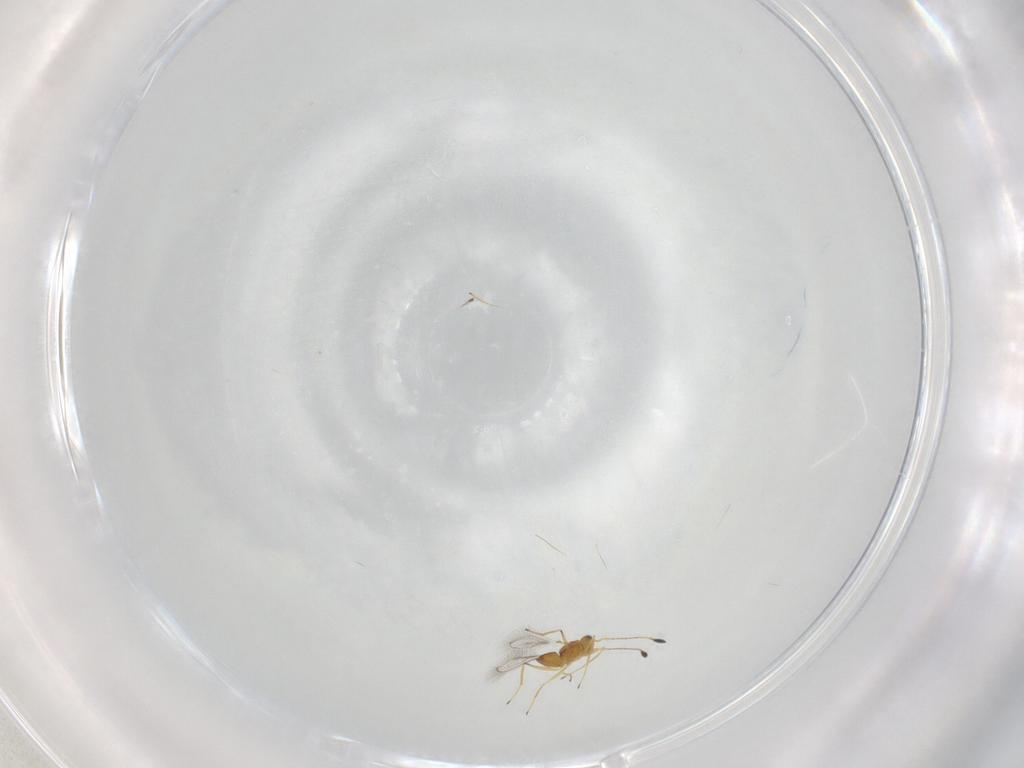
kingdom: Animalia
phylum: Arthropoda
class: Insecta
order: Hymenoptera
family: Mymaridae
